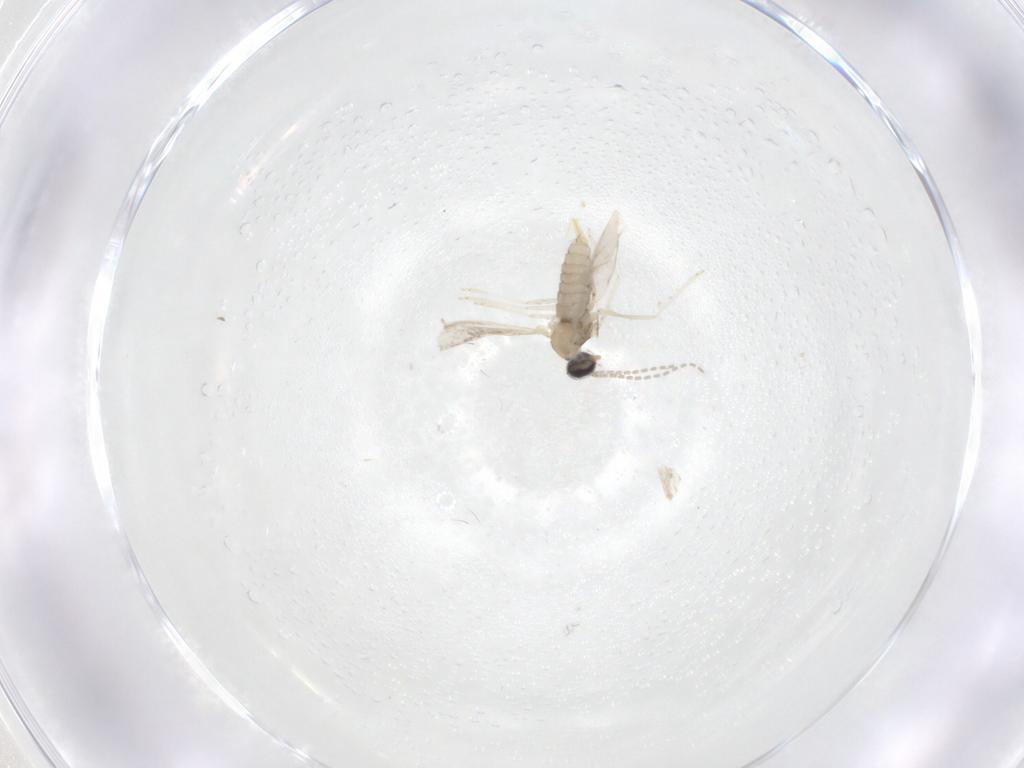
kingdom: Animalia
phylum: Arthropoda
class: Insecta
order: Diptera
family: Cecidomyiidae
